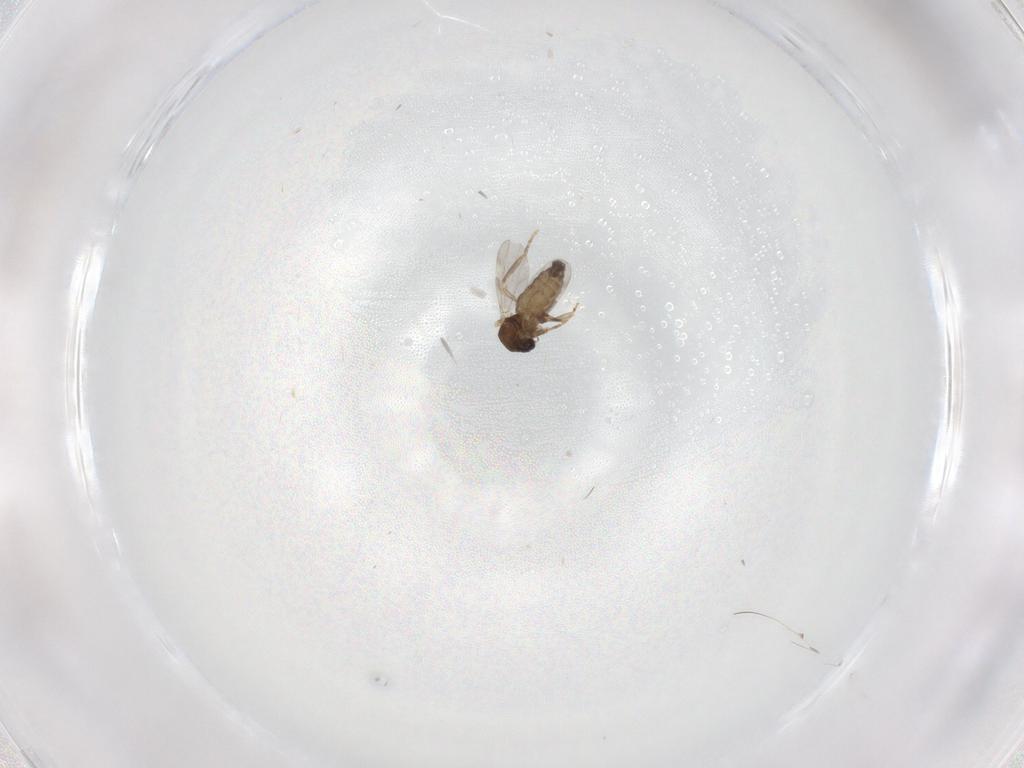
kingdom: Animalia
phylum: Arthropoda
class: Insecta
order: Diptera
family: Ceratopogonidae
